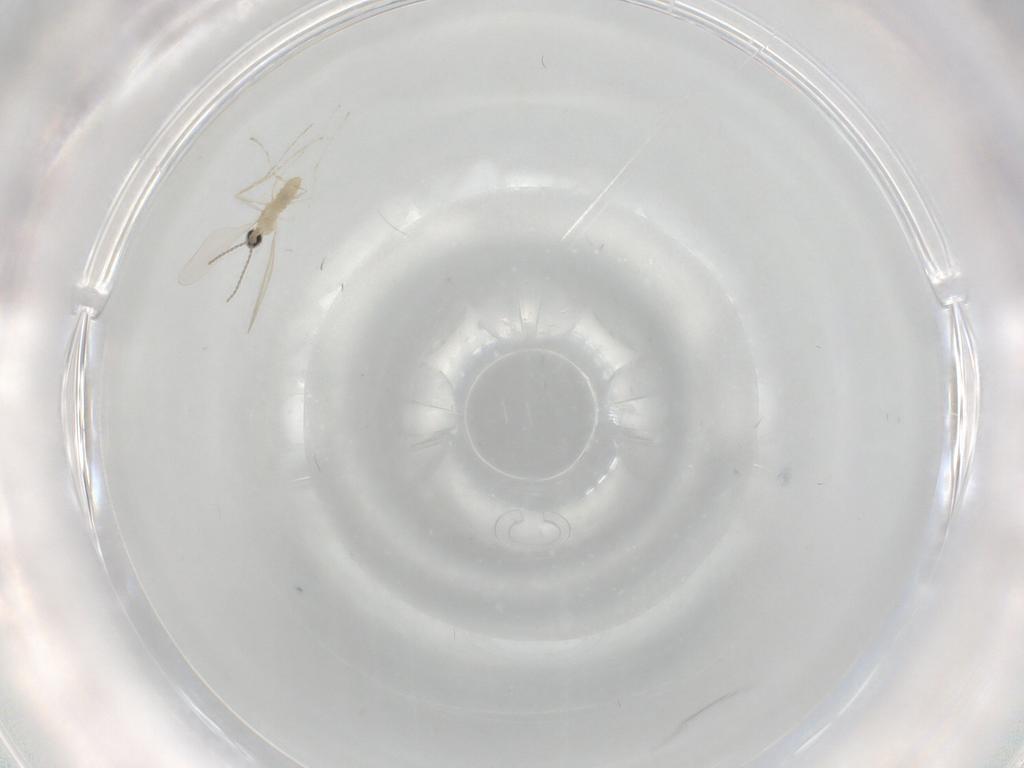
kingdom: Animalia
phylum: Arthropoda
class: Insecta
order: Diptera
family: Cecidomyiidae
